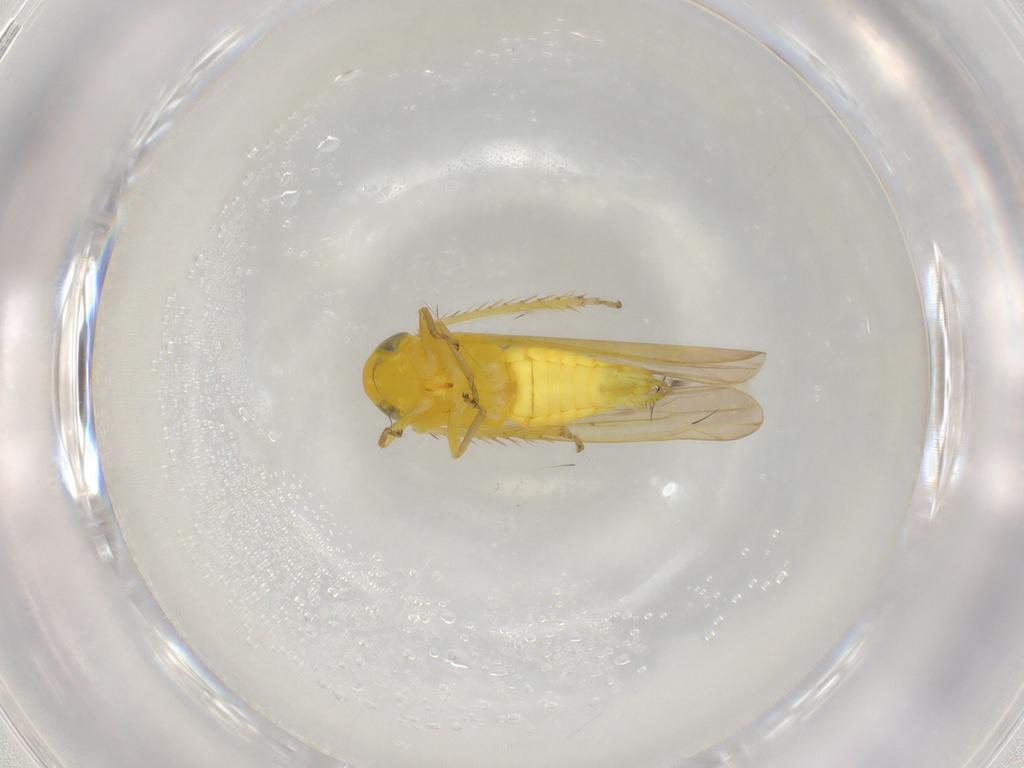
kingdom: Animalia
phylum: Arthropoda
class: Insecta
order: Hemiptera
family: Cicadellidae
